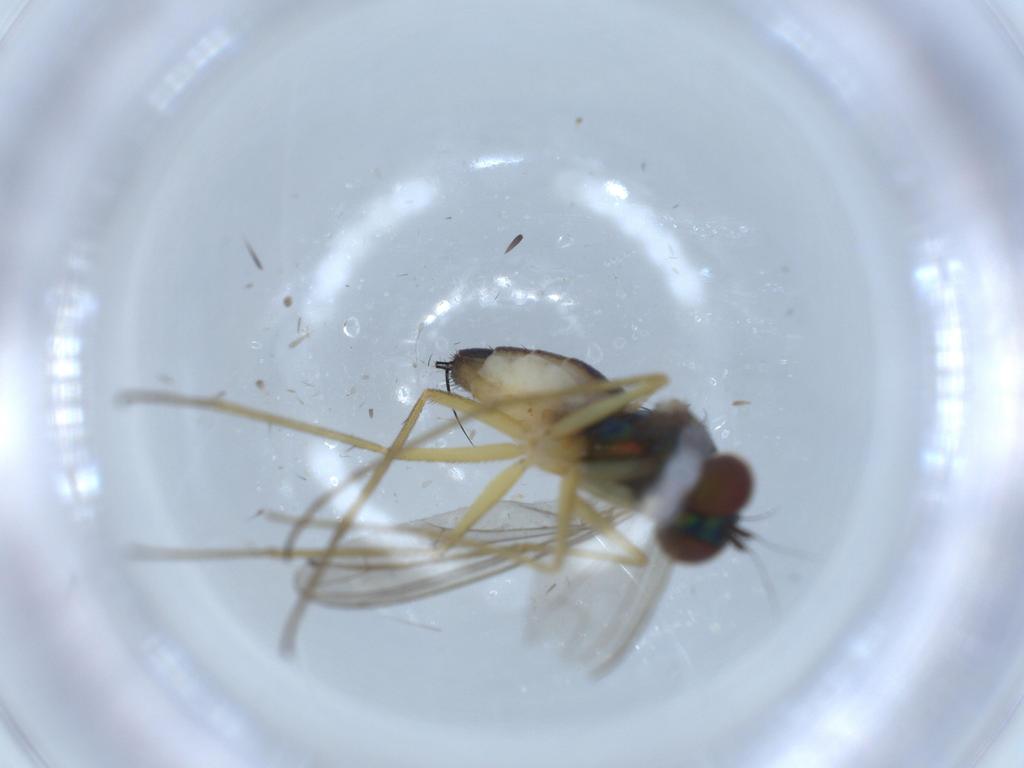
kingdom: Animalia
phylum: Arthropoda
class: Insecta
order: Diptera
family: Dolichopodidae
